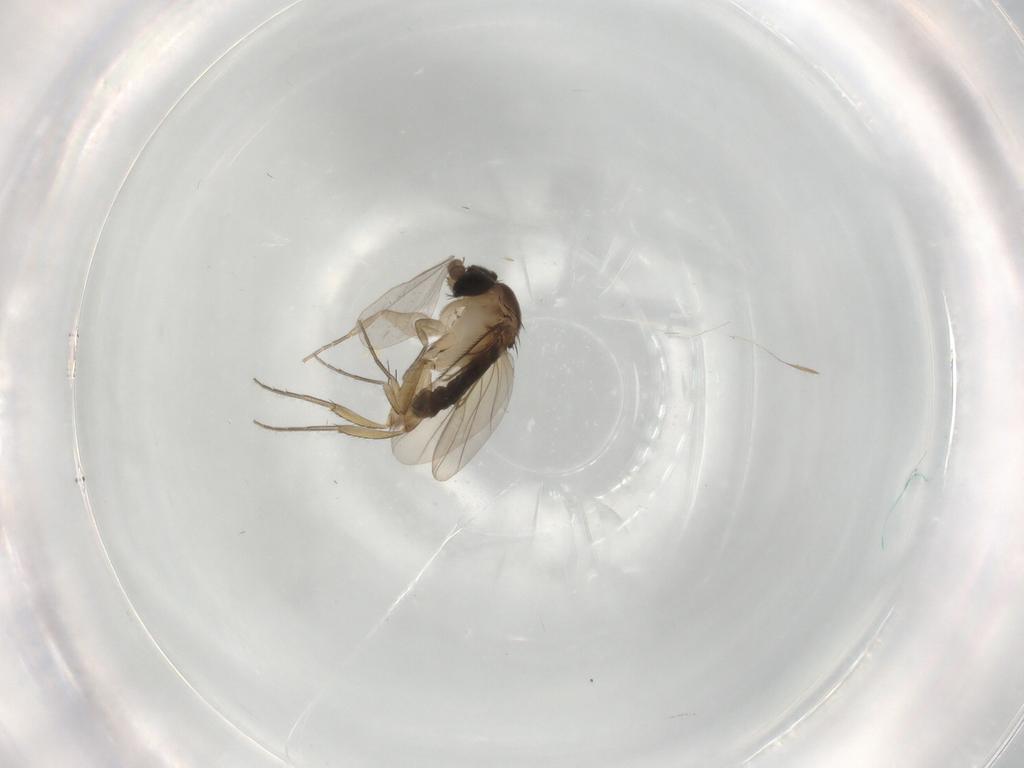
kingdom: Animalia
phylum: Arthropoda
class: Insecta
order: Diptera
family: Phoridae
